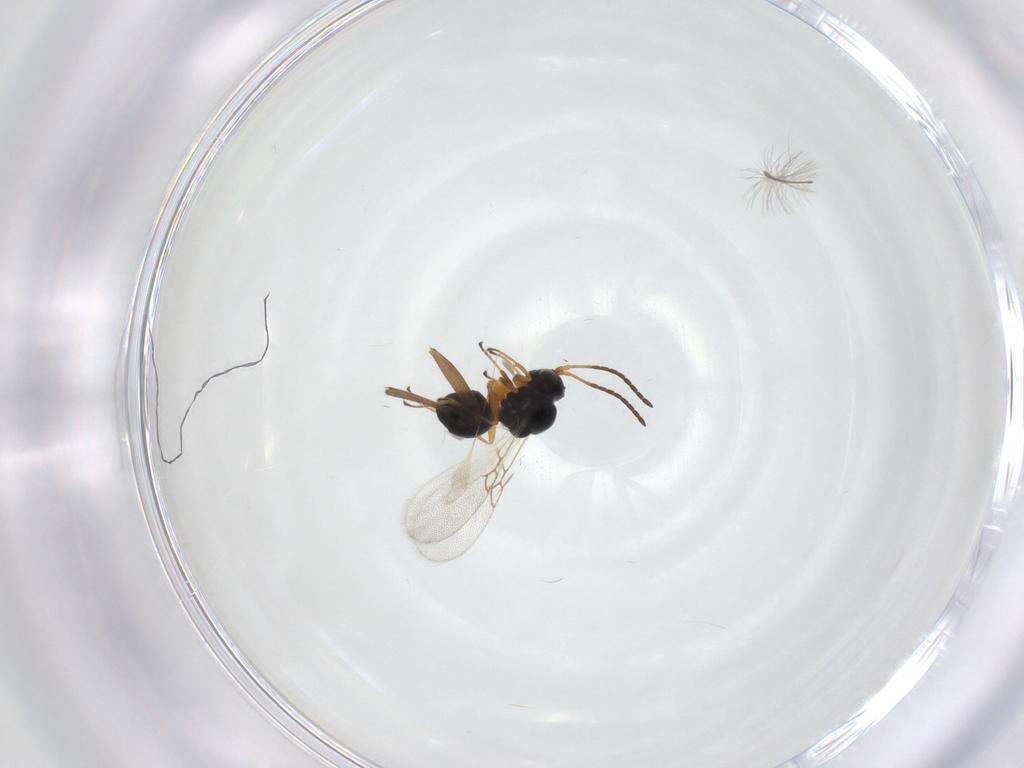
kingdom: Animalia
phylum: Arthropoda
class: Insecta
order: Hymenoptera
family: Figitidae
